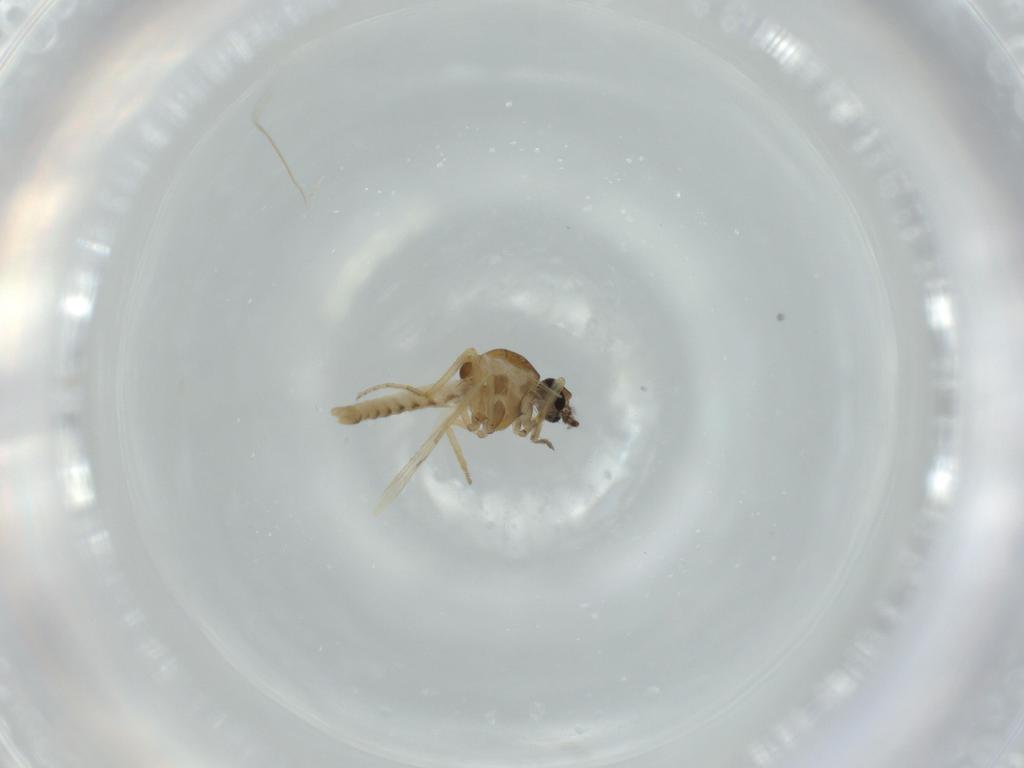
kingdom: Animalia
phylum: Arthropoda
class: Insecta
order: Diptera
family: Ceratopogonidae
